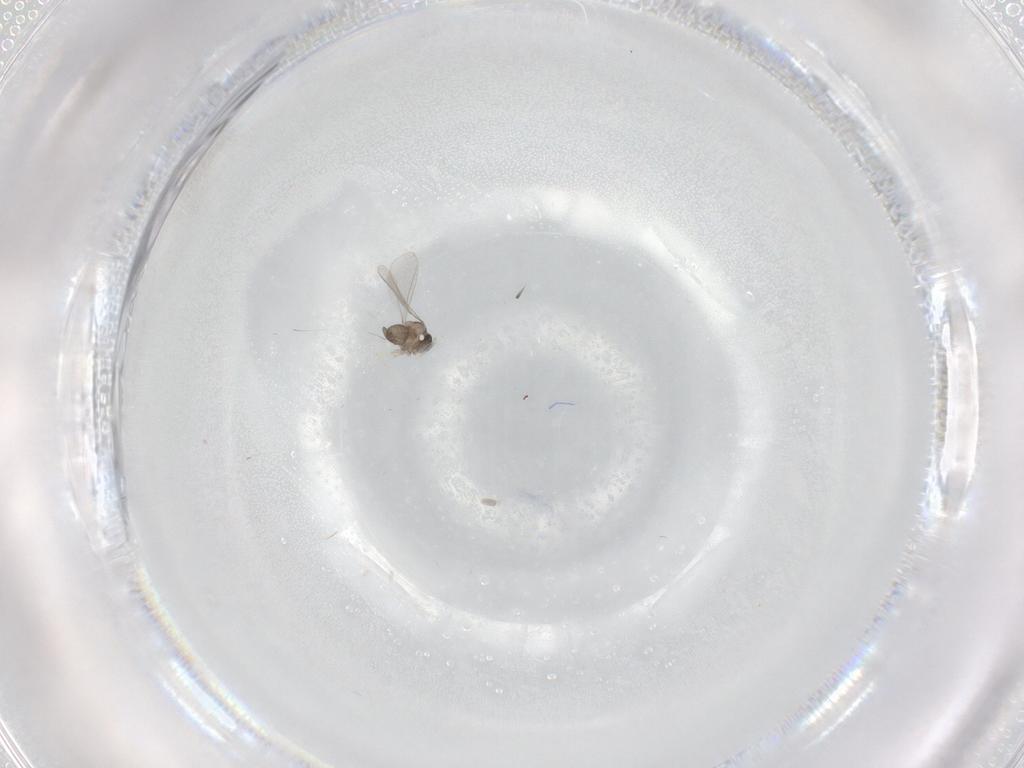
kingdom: Animalia
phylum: Arthropoda
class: Insecta
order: Diptera
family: Cecidomyiidae
